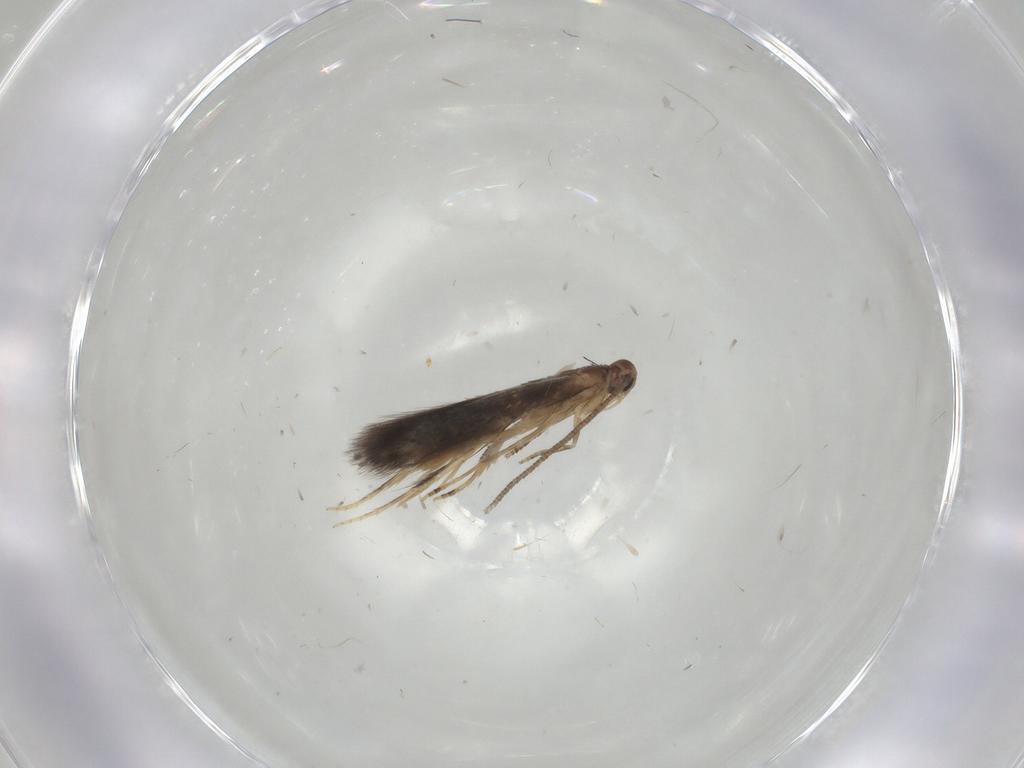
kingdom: Animalia
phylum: Arthropoda
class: Insecta
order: Lepidoptera
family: Elachistidae
